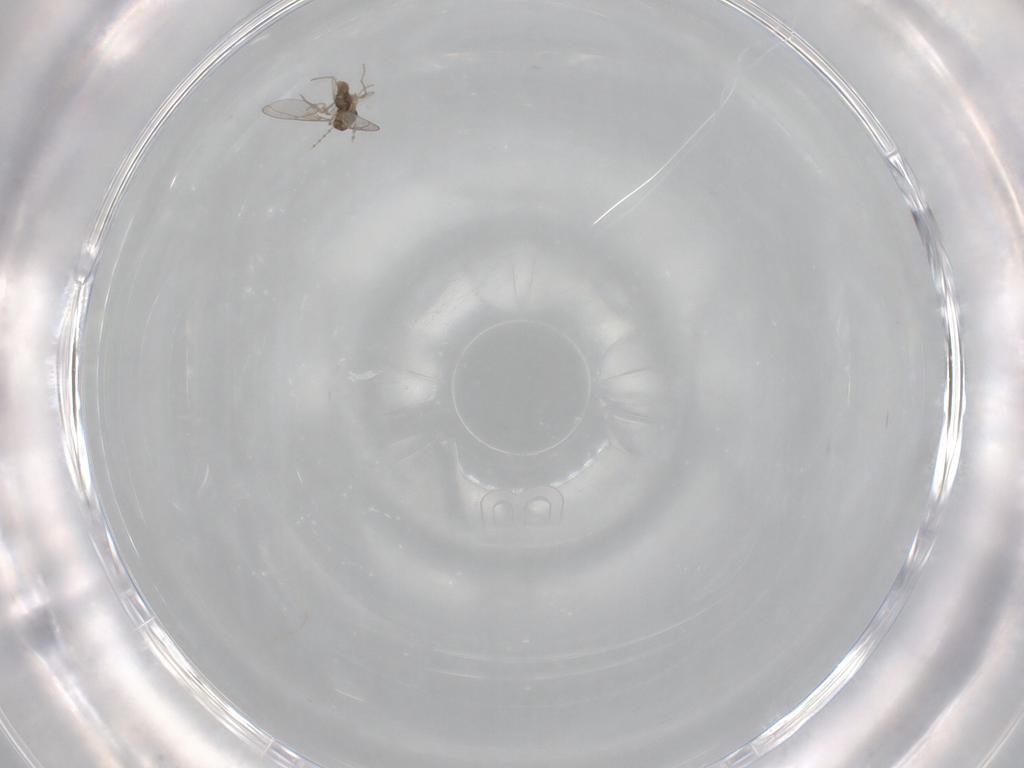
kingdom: Animalia
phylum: Arthropoda
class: Insecta
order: Diptera
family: Cecidomyiidae
